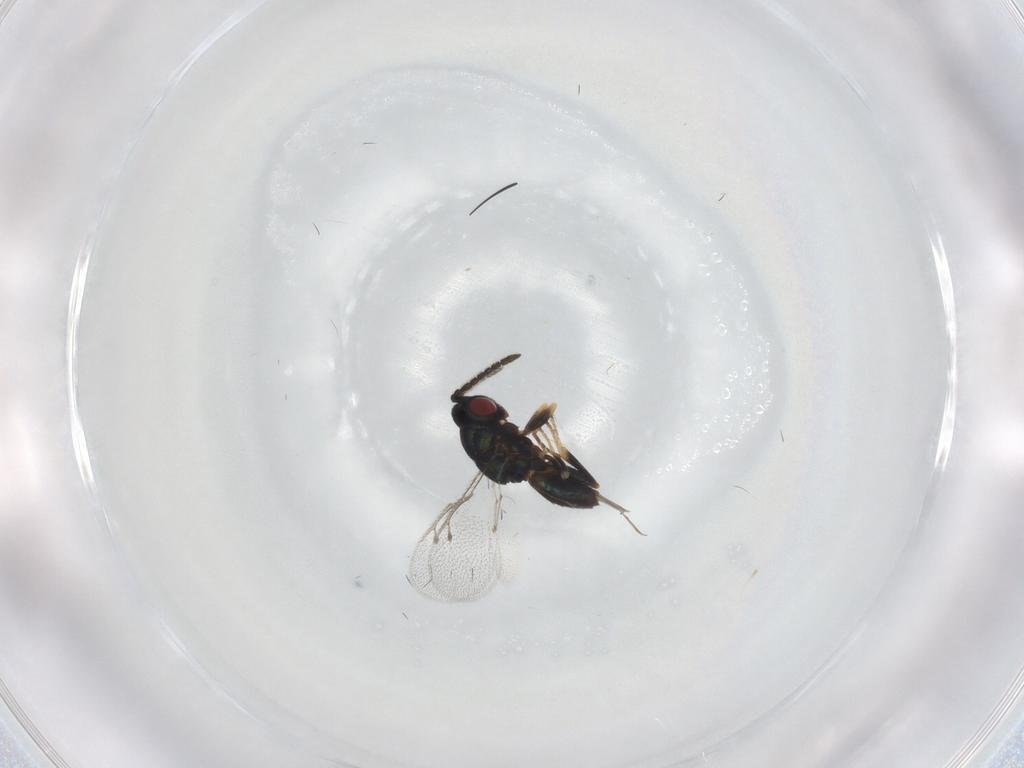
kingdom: Animalia
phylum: Arthropoda
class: Insecta
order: Hymenoptera
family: Pteromalidae
